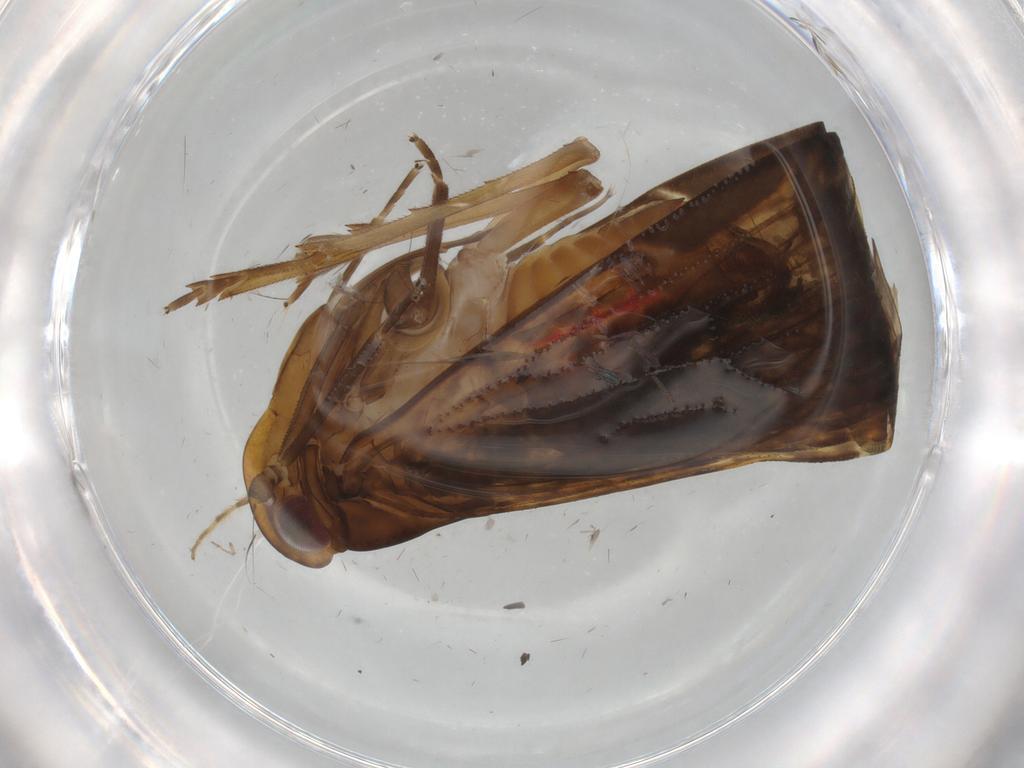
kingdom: Animalia
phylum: Arthropoda
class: Insecta
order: Hemiptera
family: Cixiidae
